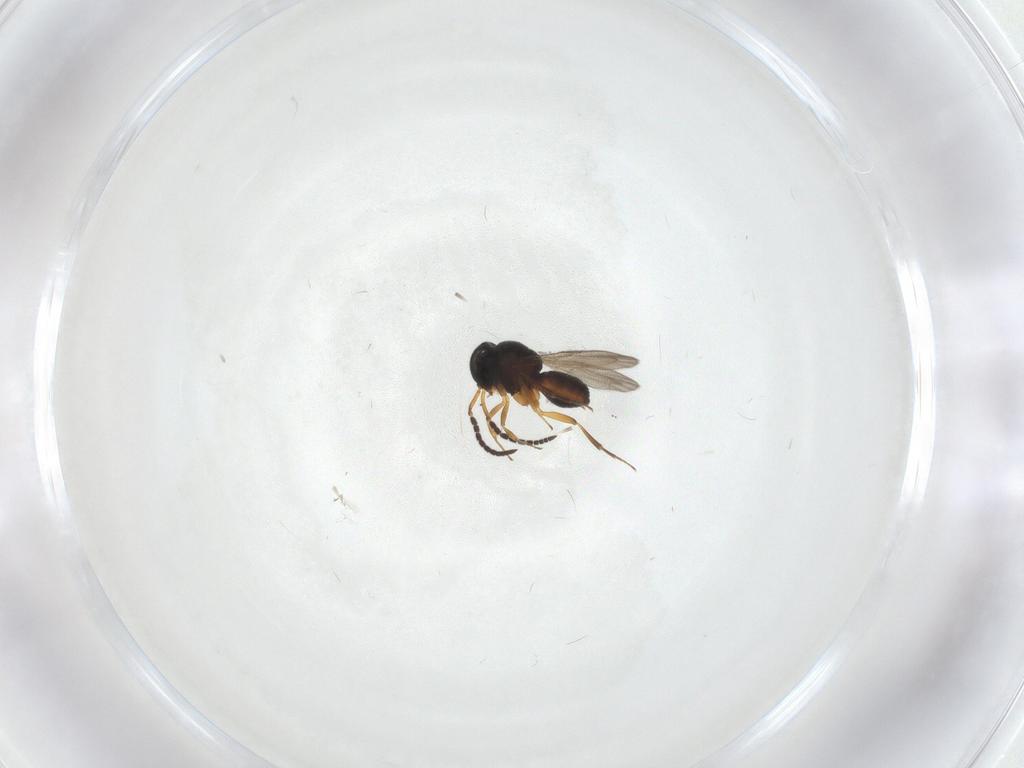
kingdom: Animalia
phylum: Arthropoda
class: Insecta
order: Hymenoptera
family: Scelionidae
